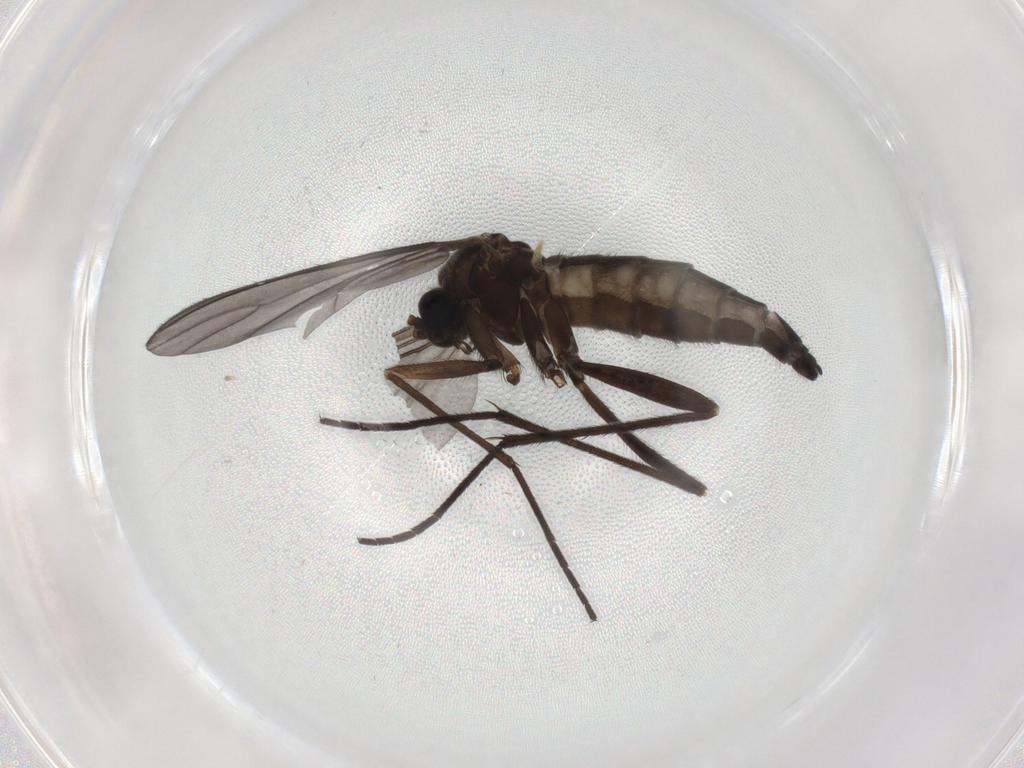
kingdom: Animalia
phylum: Arthropoda
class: Insecta
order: Diptera
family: Sciaridae
